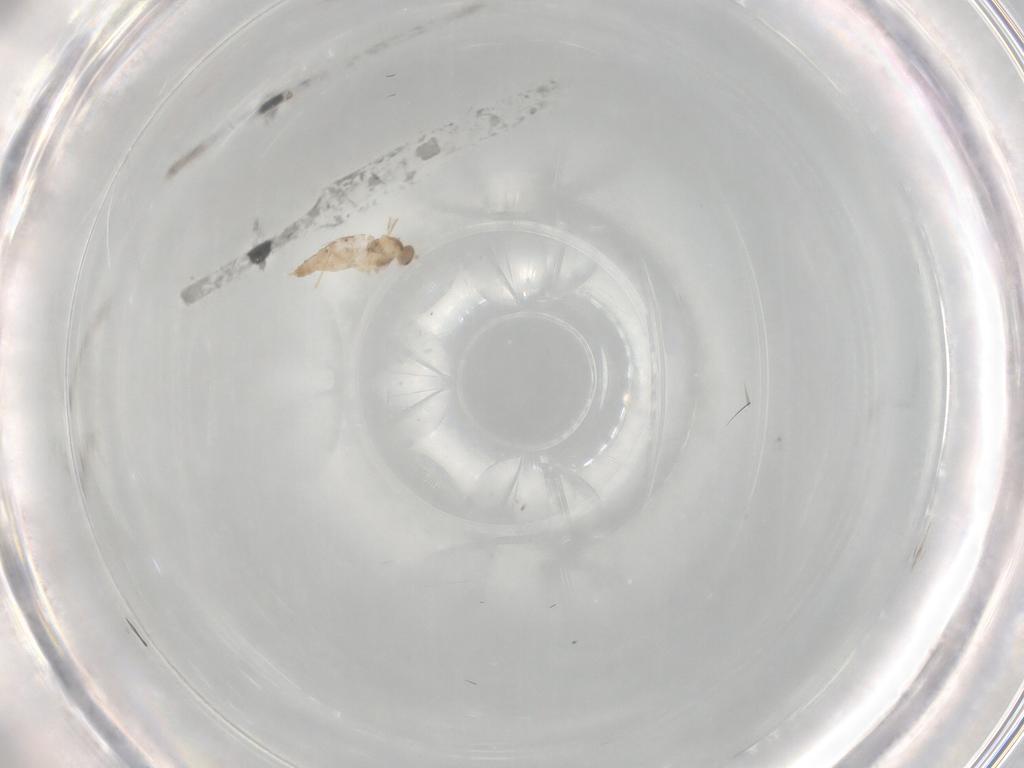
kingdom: Animalia
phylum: Arthropoda
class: Insecta
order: Diptera
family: Cecidomyiidae
